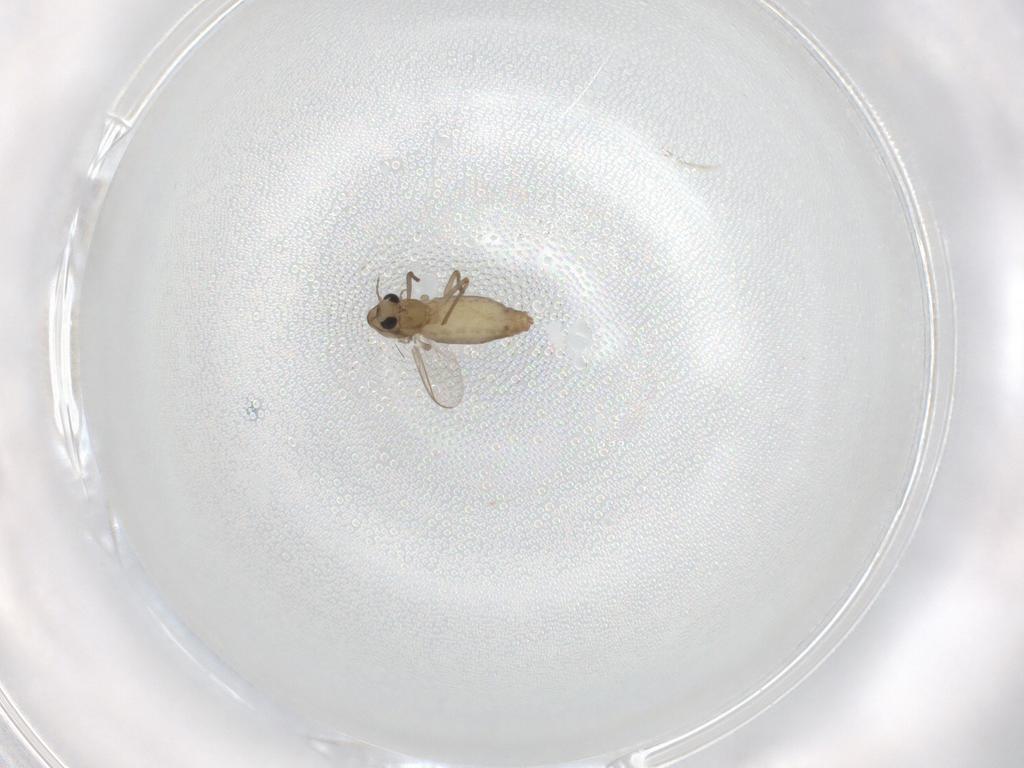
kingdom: Animalia
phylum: Arthropoda
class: Insecta
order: Diptera
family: Chironomidae
